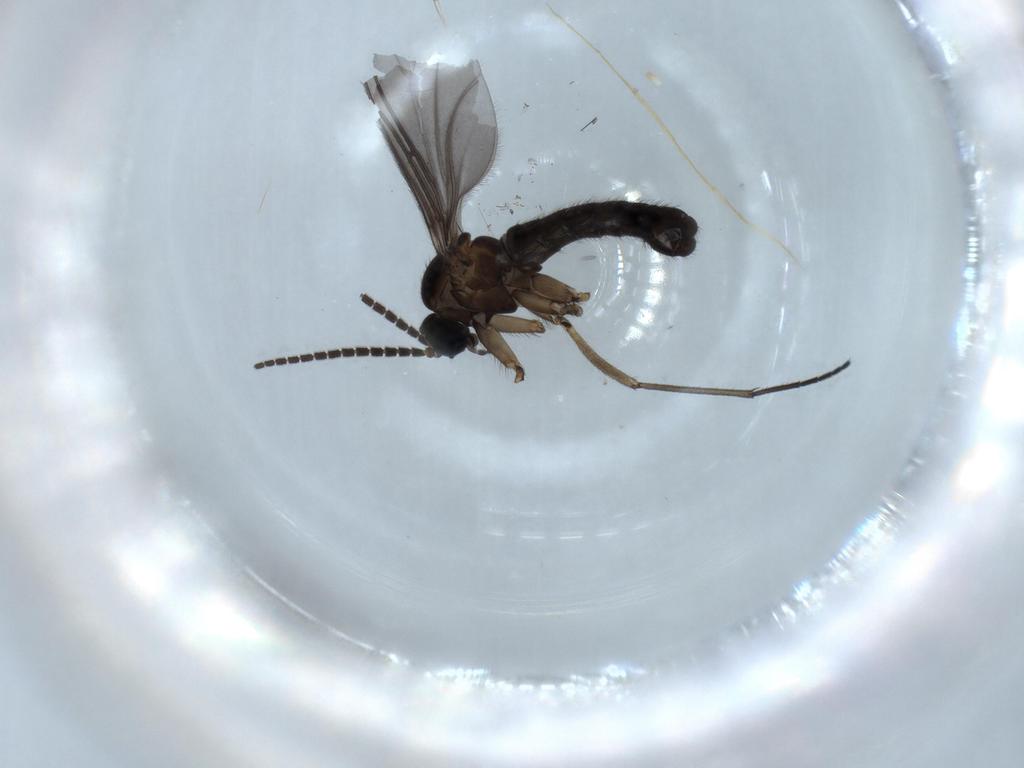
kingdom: Animalia
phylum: Arthropoda
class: Insecta
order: Diptera
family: Sciaridae
